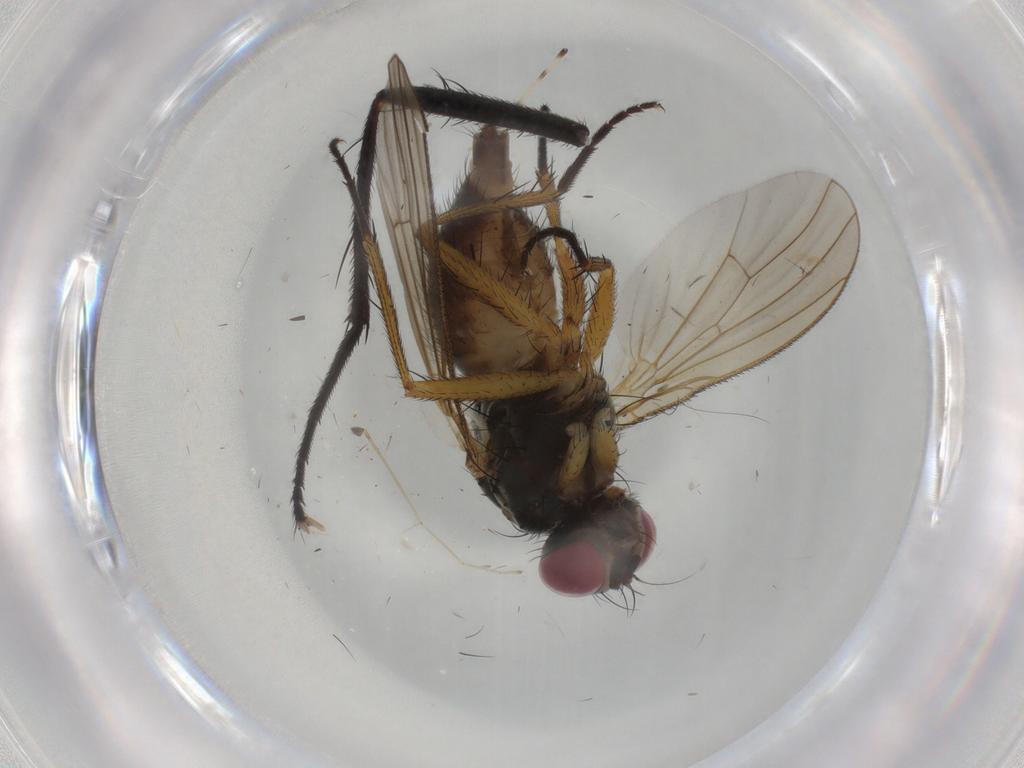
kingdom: Animalia
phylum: Arthropoda
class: Insecta
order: Diptera
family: Muscidae
